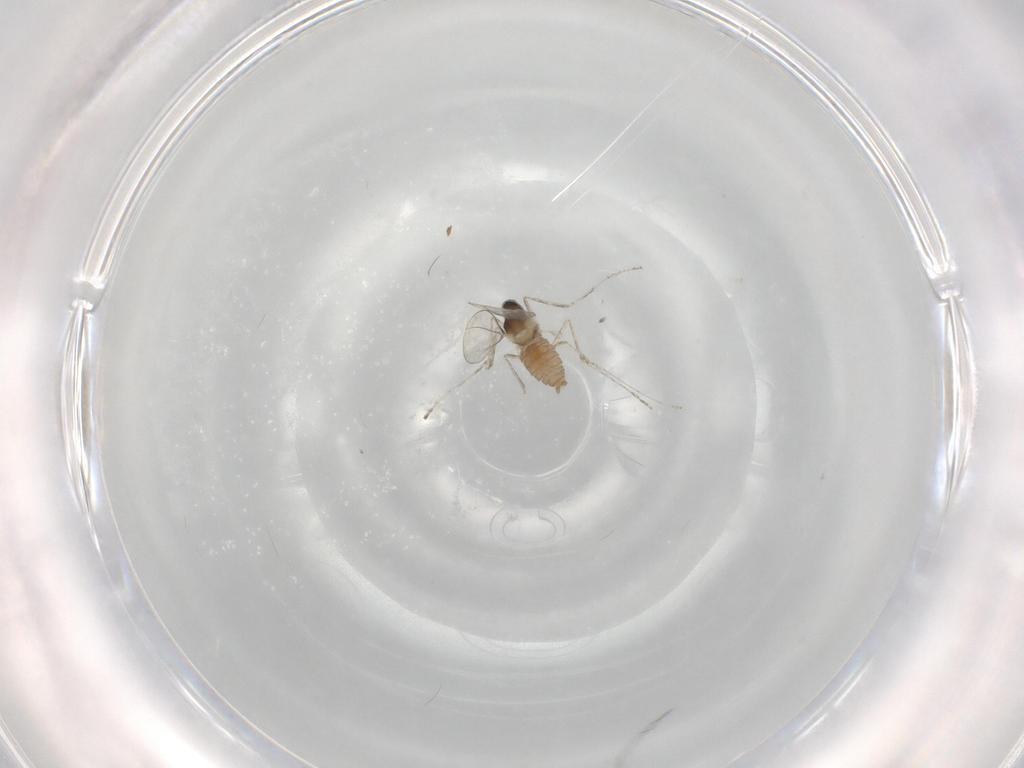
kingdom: Animalia
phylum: Arthropoda
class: Insecta
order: Diptera
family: Cecidomyiidae
